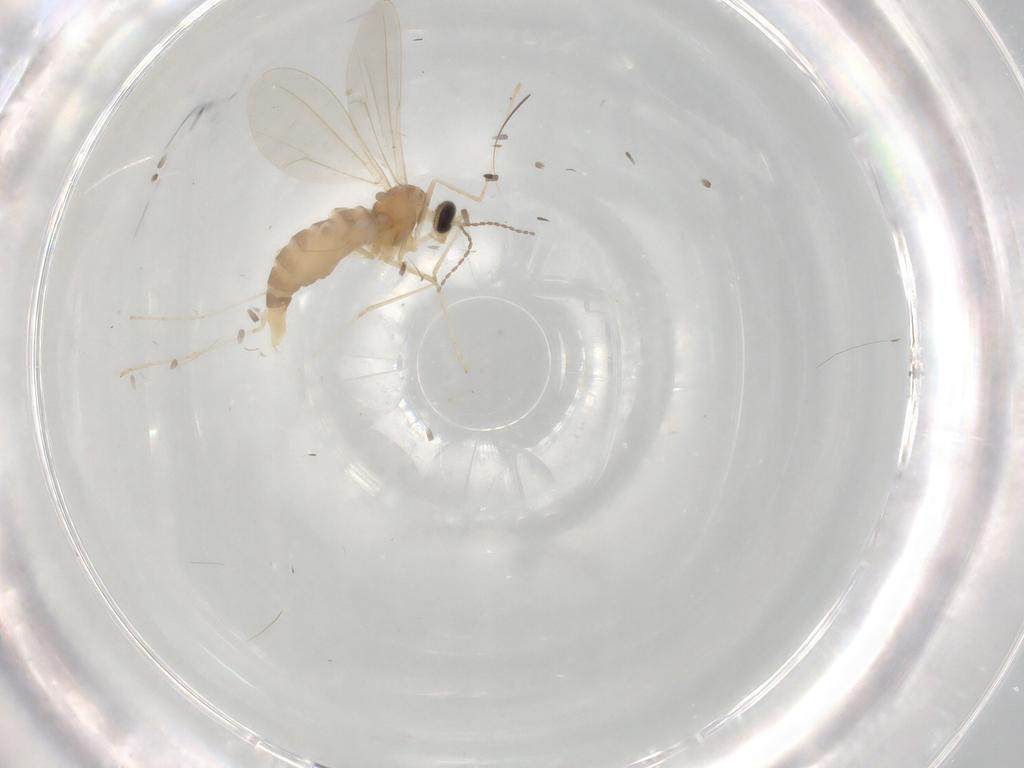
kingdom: Animalia
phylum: Arthropoda
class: Insecta
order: Diptera
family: Cecidomyiidae
